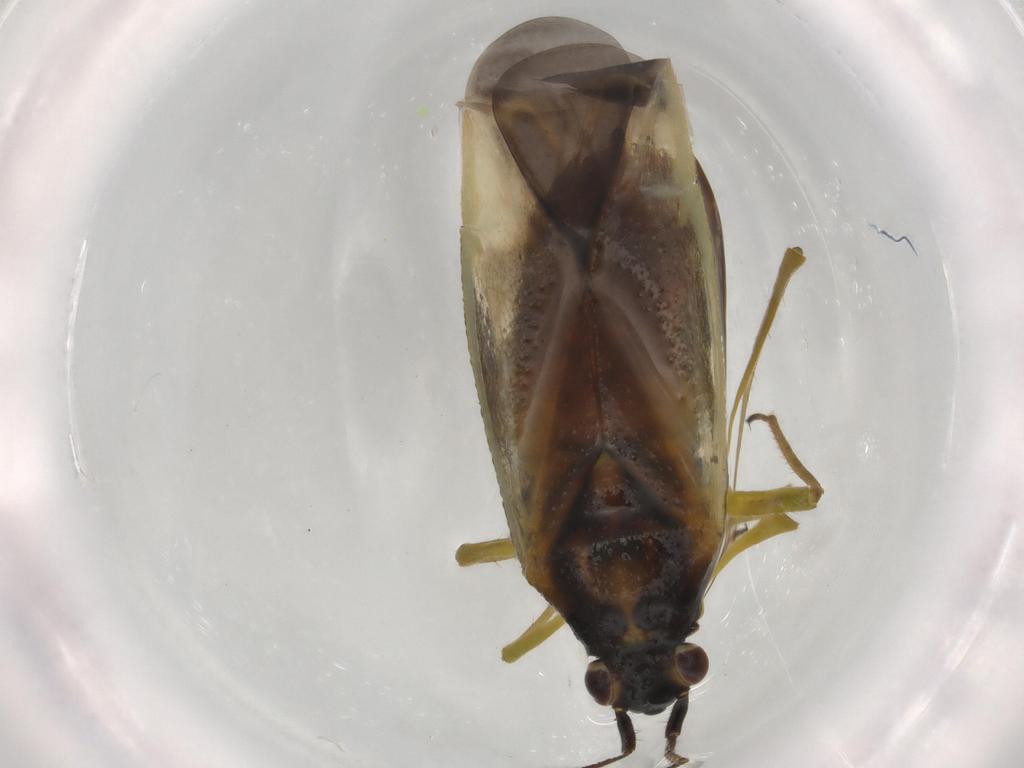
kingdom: Animalia
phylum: Arthropoda
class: Insecta
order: Hemiptera
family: Miridae
